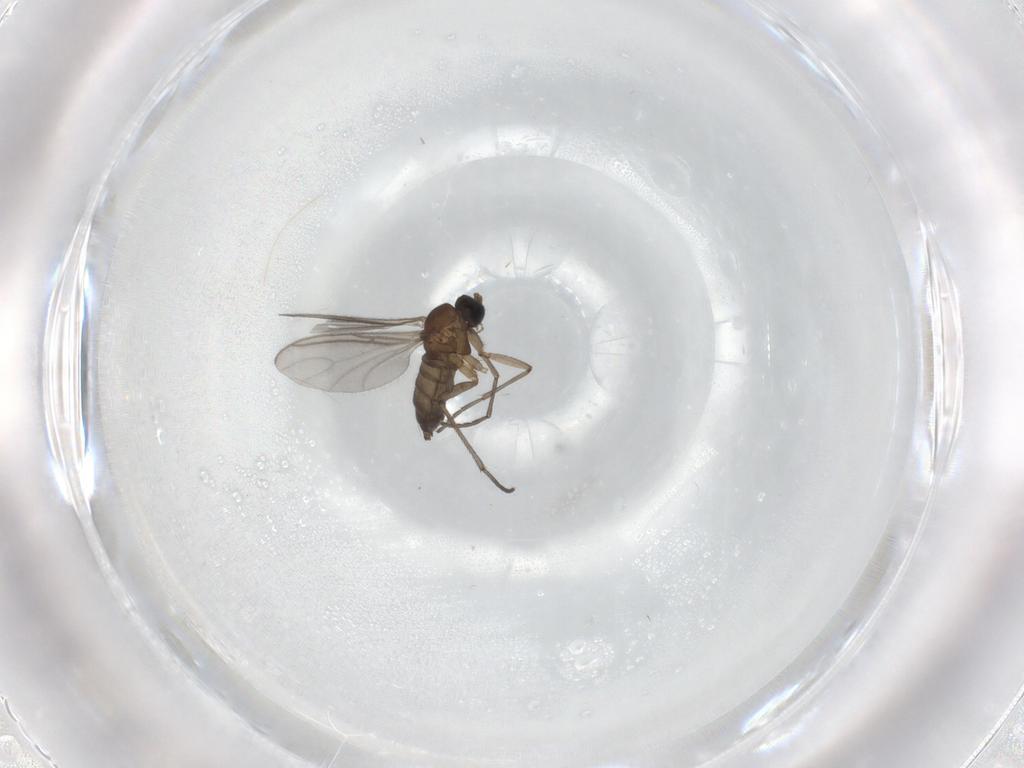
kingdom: Animalia
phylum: Arthropoda
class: Insecta
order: Diptera
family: Sciaridae
